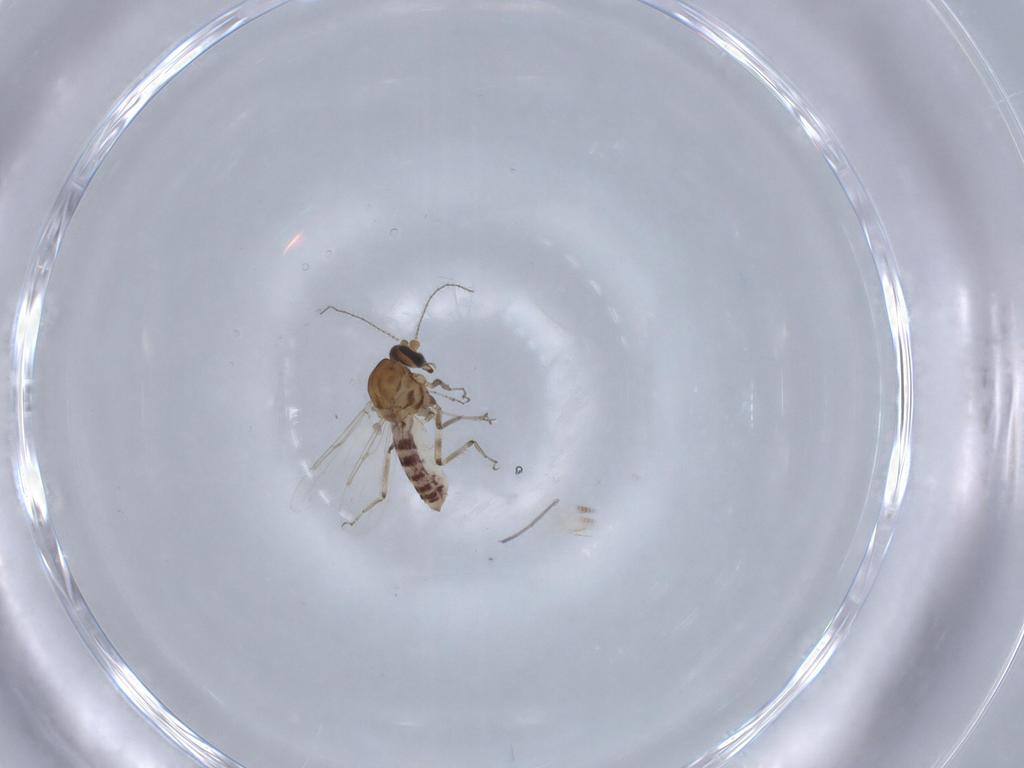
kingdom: Animalia
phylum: Arthropoda
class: Insecta
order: Diptera
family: Ceratopogonidae
